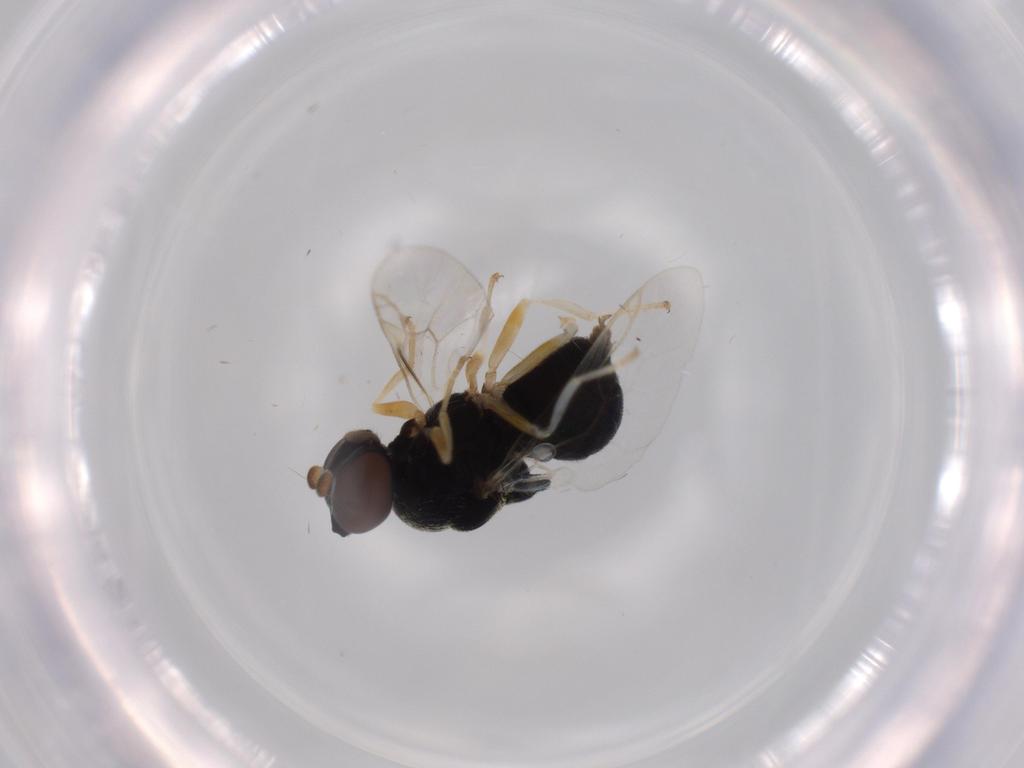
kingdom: Animalia
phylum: Arthropoda
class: Insecta
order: Diptera
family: Stratiomyidae
